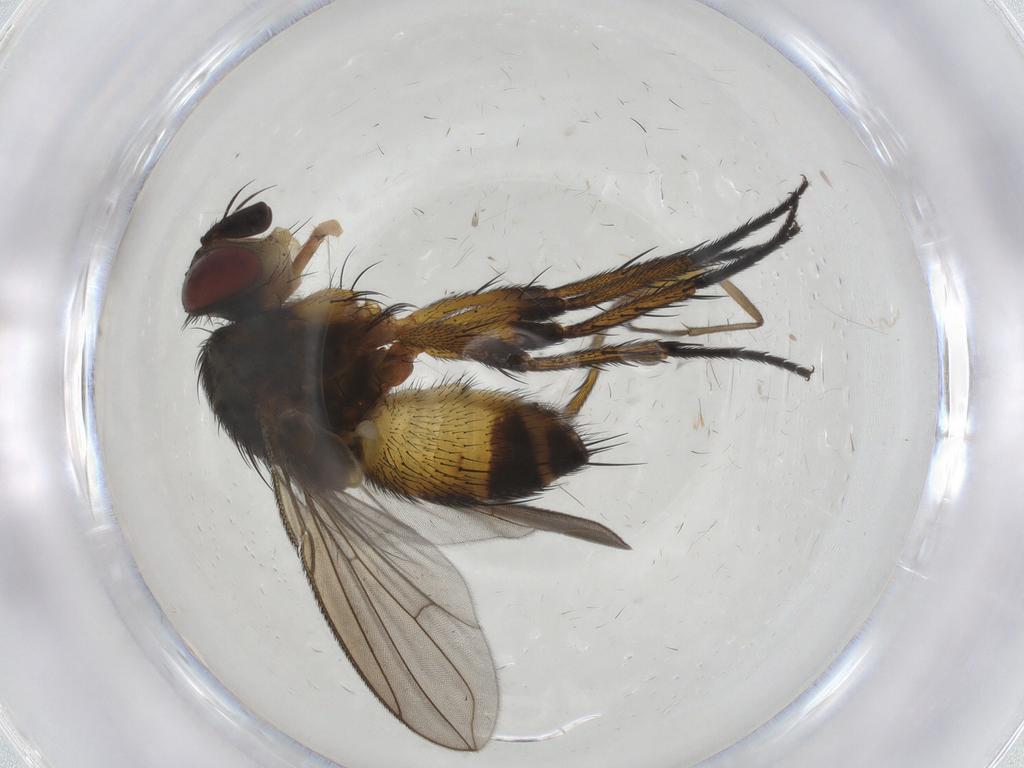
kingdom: Animalia
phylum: Arthropoda
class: Insecta
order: Diptera
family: Tachinidae
